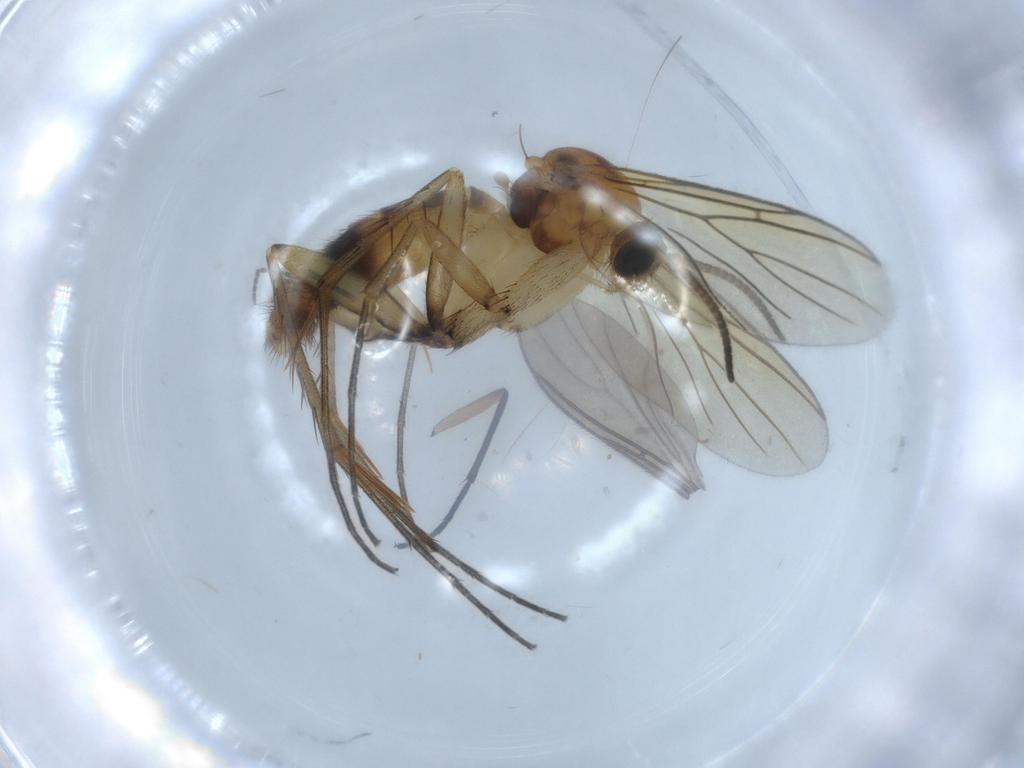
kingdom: Animalia
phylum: Arthropoda
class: Insecta
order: Diptera
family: Mycetophilidae
